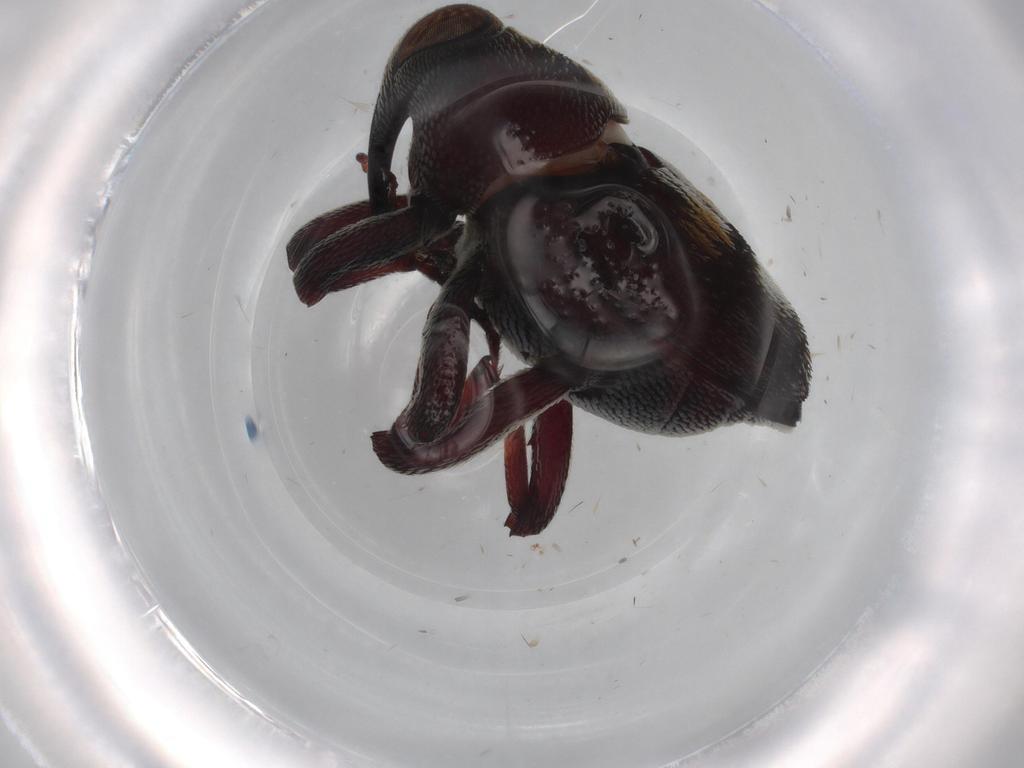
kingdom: Animalia
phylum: Arthropoda
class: Insecta
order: Coleoptera
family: Curculionidae
